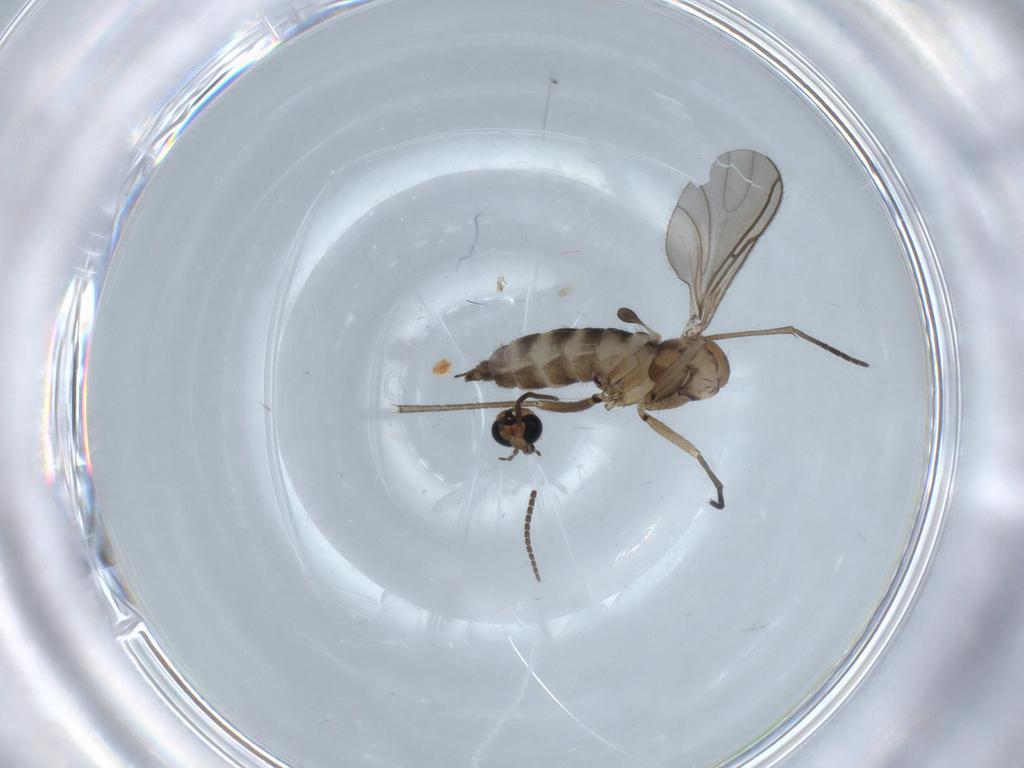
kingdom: Animalia
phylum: Arthropoda
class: Insecta
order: Diptera
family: Sciaridae
